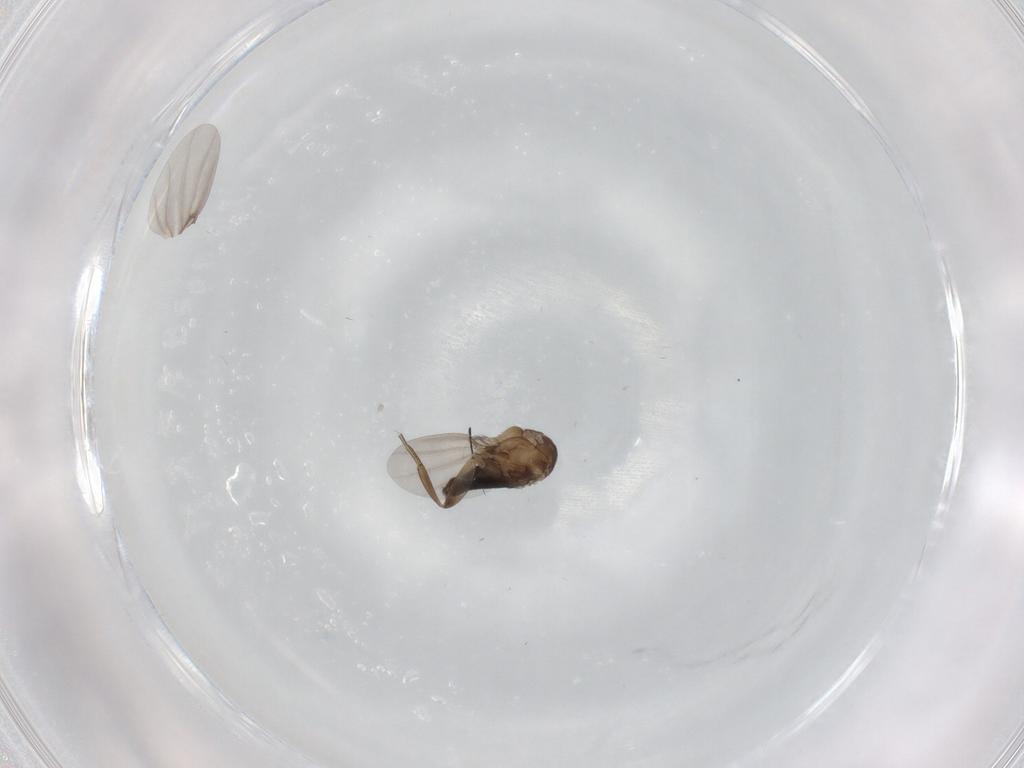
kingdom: Animalia
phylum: Arthropoda
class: Insecta
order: Diptera
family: Phoridae
